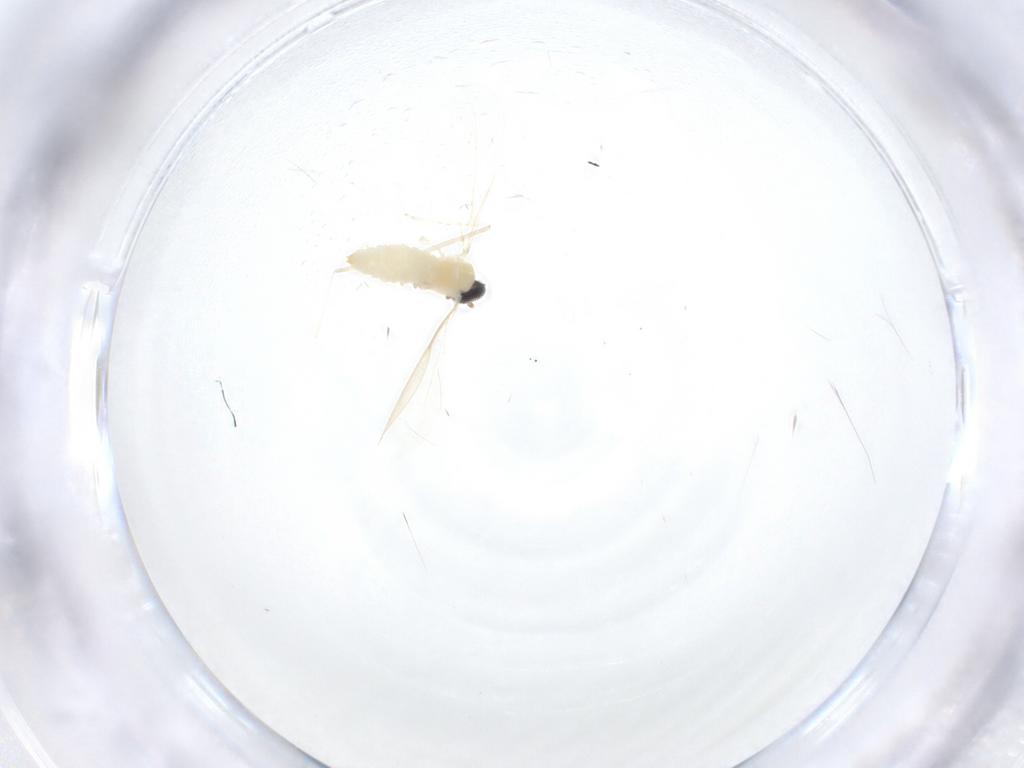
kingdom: Animalia
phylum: Arthropoda
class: Insecta
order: Diptera
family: Cecidomyiidae
